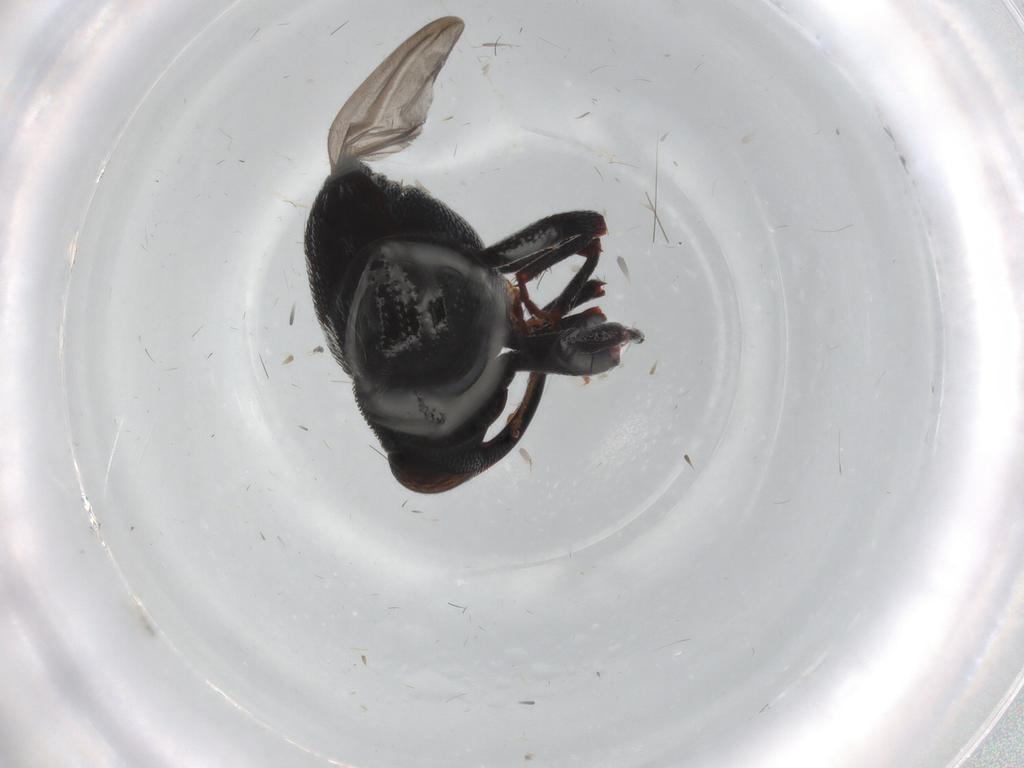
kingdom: Animalia
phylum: Arthropoda
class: Insecta
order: Coleoptera
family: Curculionidae
